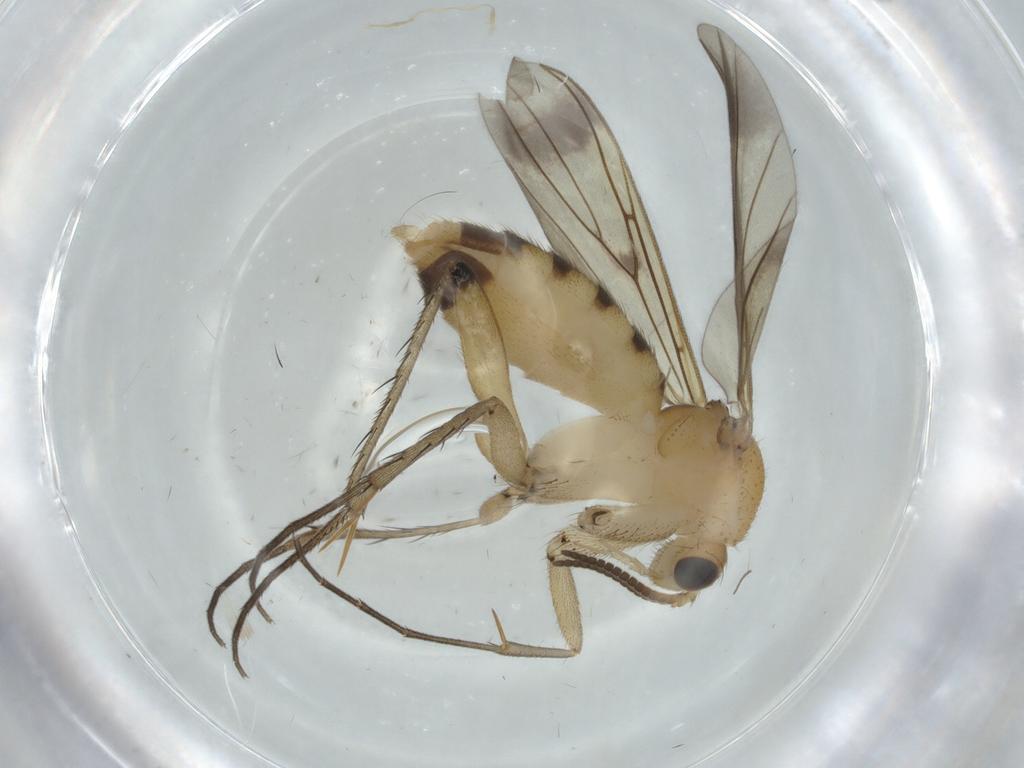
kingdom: Animalia
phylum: Arthropoda
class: Insecta
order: Diptera
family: Mycetophilidae
